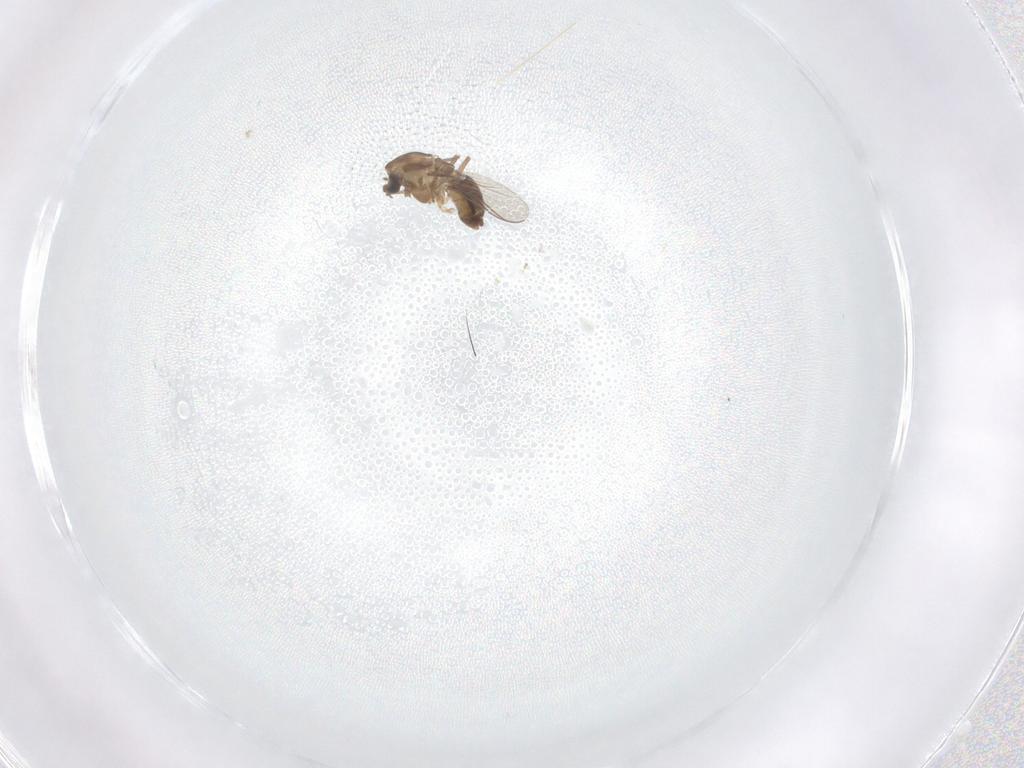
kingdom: Animalia
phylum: Arthropoda
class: Insecta
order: Diptera
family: Chironomidae
